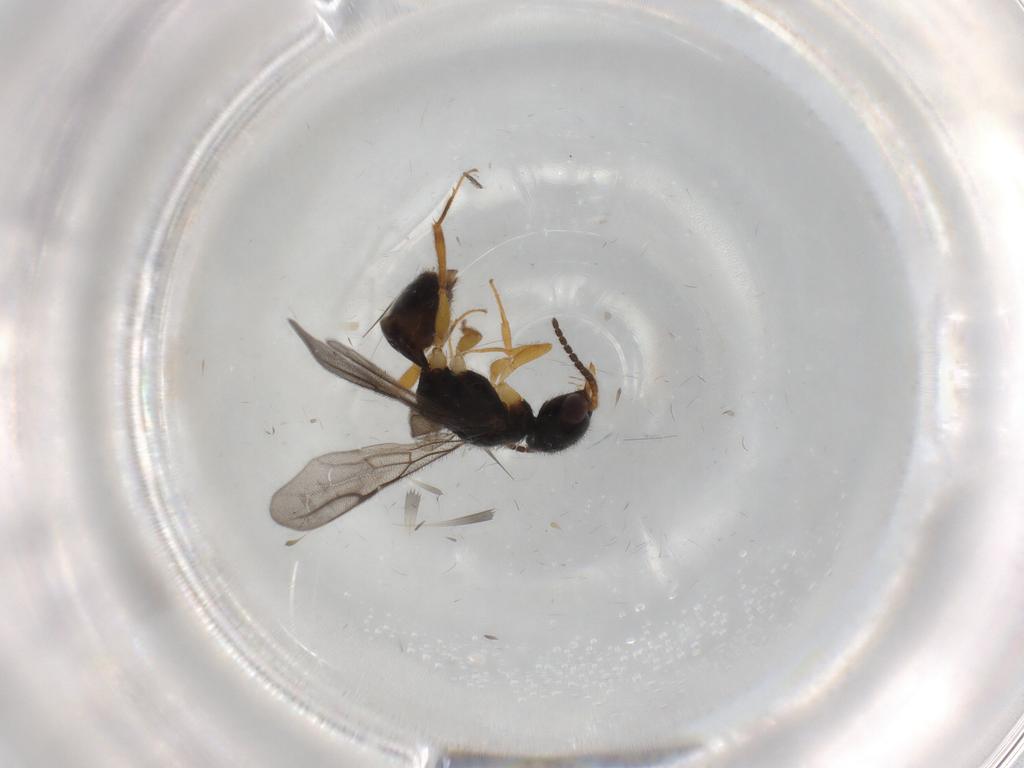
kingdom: Animalia
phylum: Arthropoda
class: Insecta
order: Hymenoptera
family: Bethylidae
